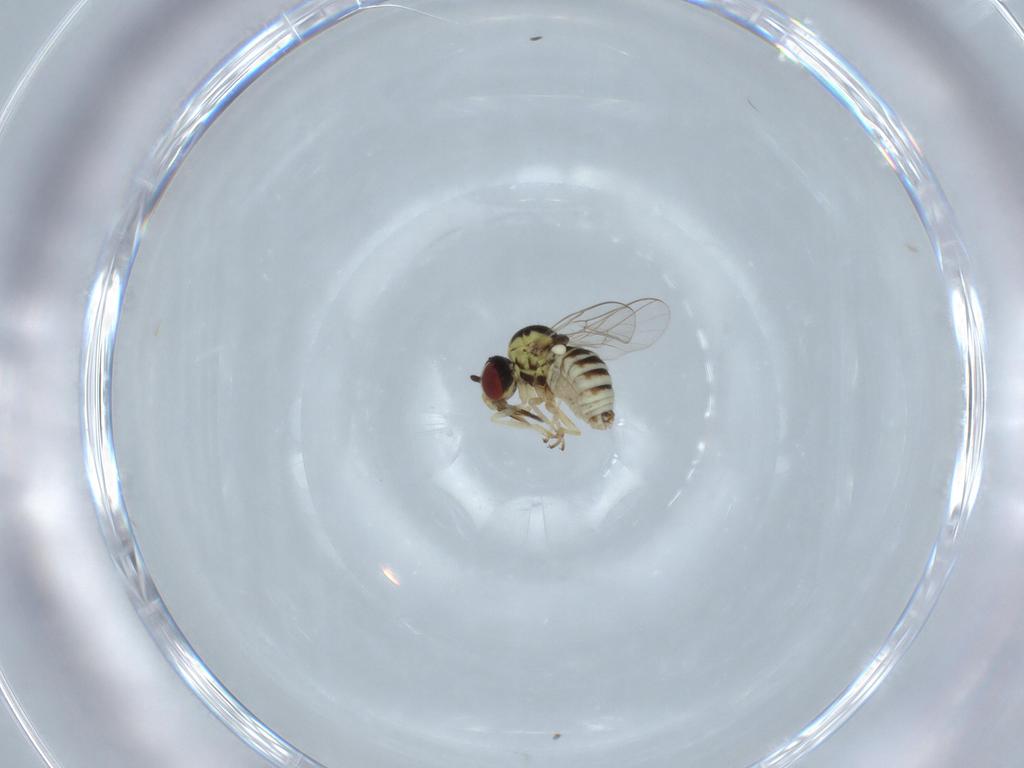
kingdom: Animalia
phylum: Arthropoda
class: Insecta
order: Diptera
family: Bombyliidae
